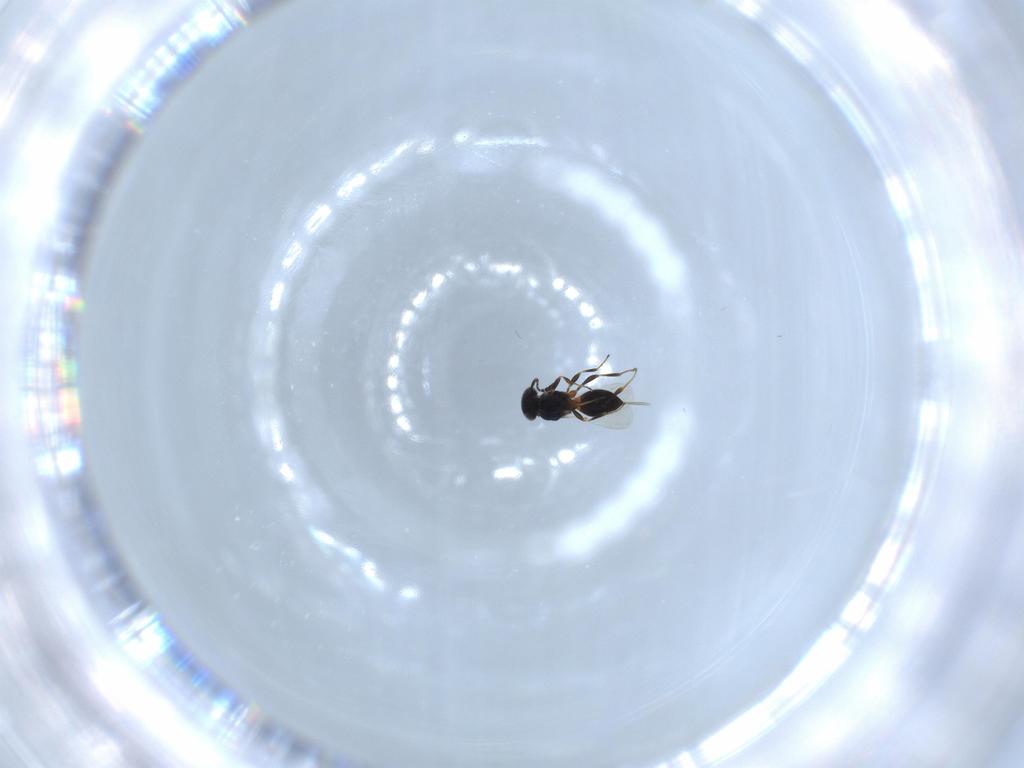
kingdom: Animalia
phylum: Arthropoda
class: Insecta
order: Hymenoptera
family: Platygastridae
